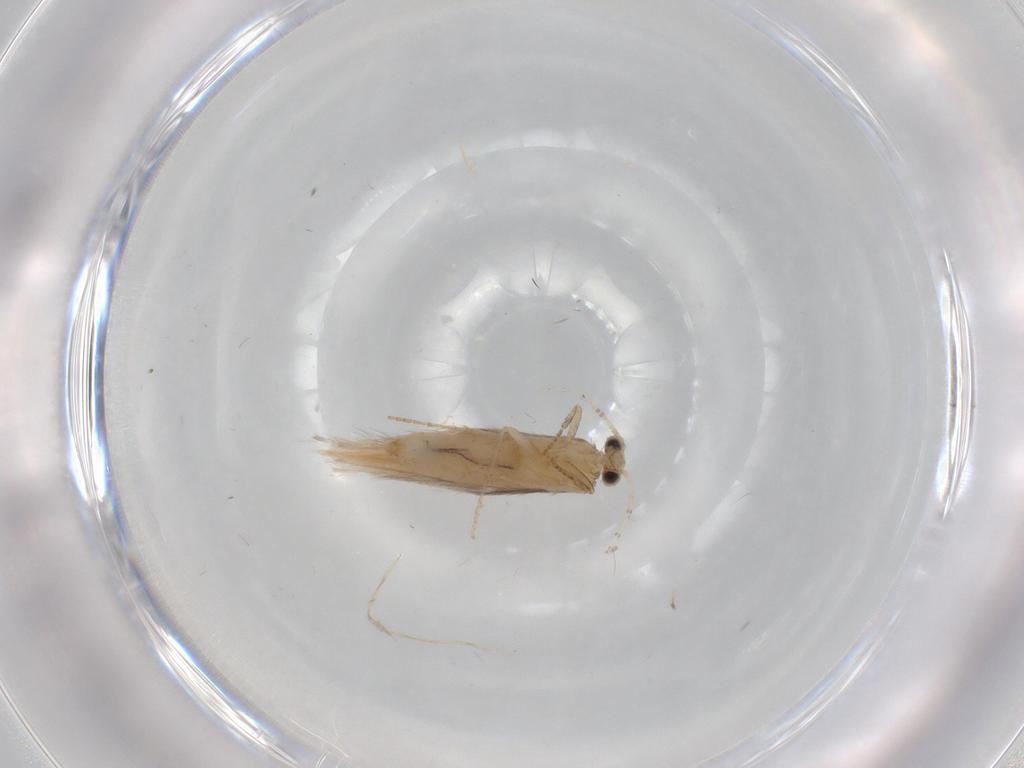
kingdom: Animalia
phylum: Arthropoda
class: Insecta
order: Trichoptera
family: Hydroptilidae
